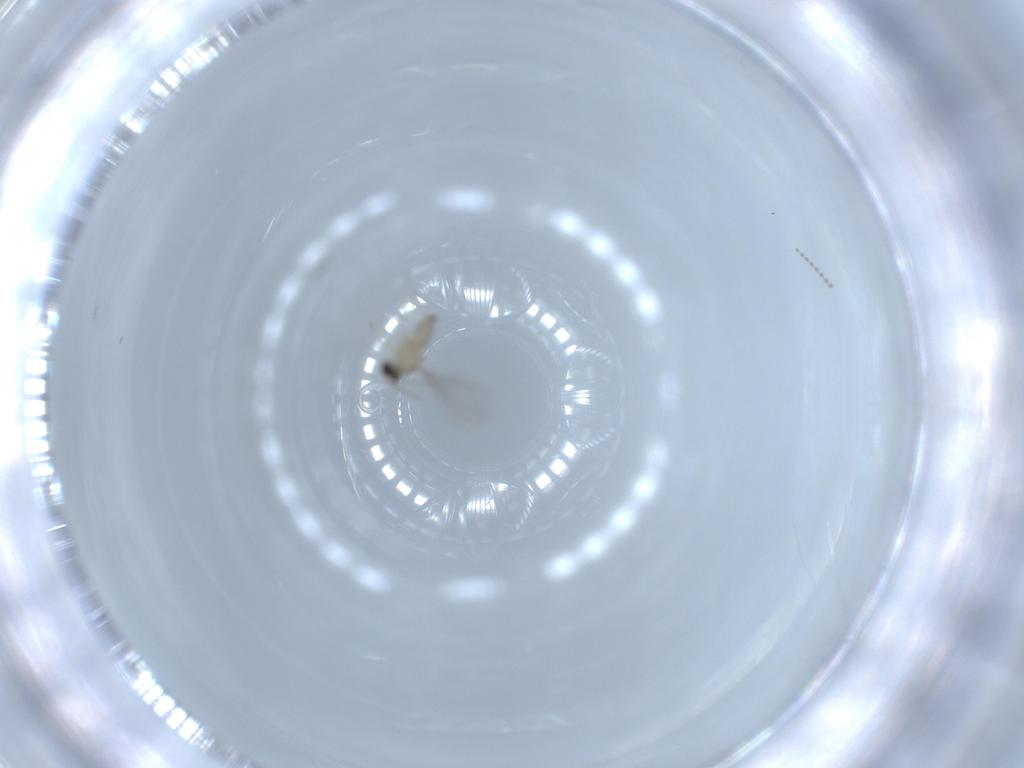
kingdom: Animalia
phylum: Arthropoda
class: Insecta
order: Diptera
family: Cecidomyiidae
